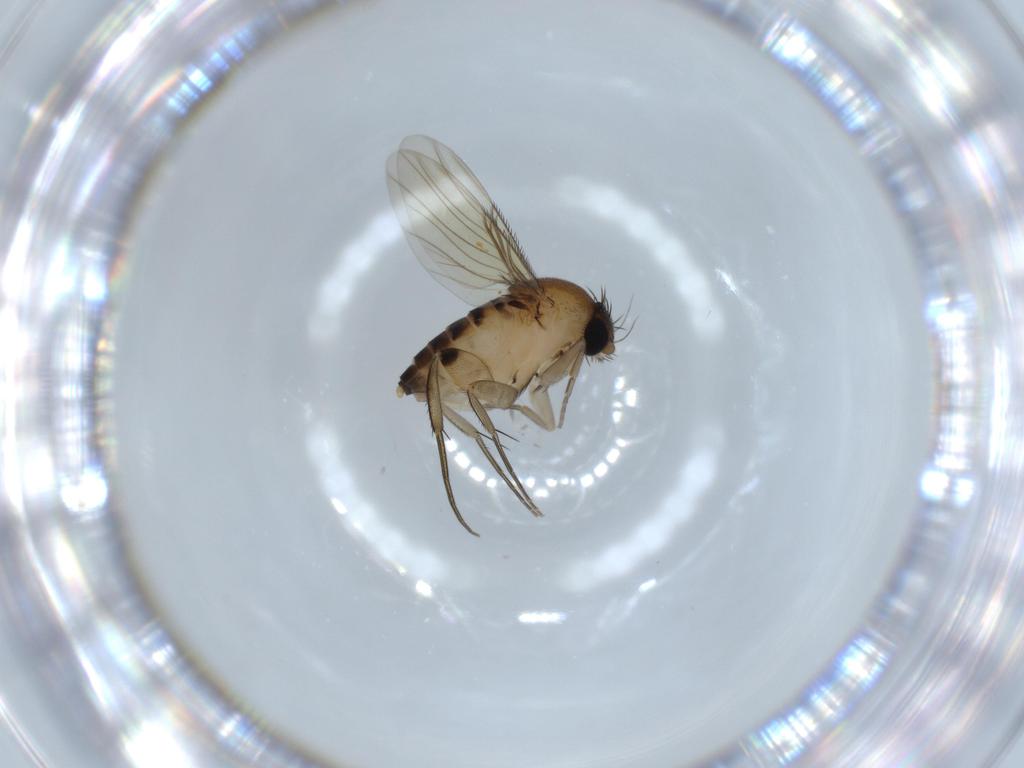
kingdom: Animalia
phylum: Arthropoda
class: Insecta
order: Diptera
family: Phoridae
